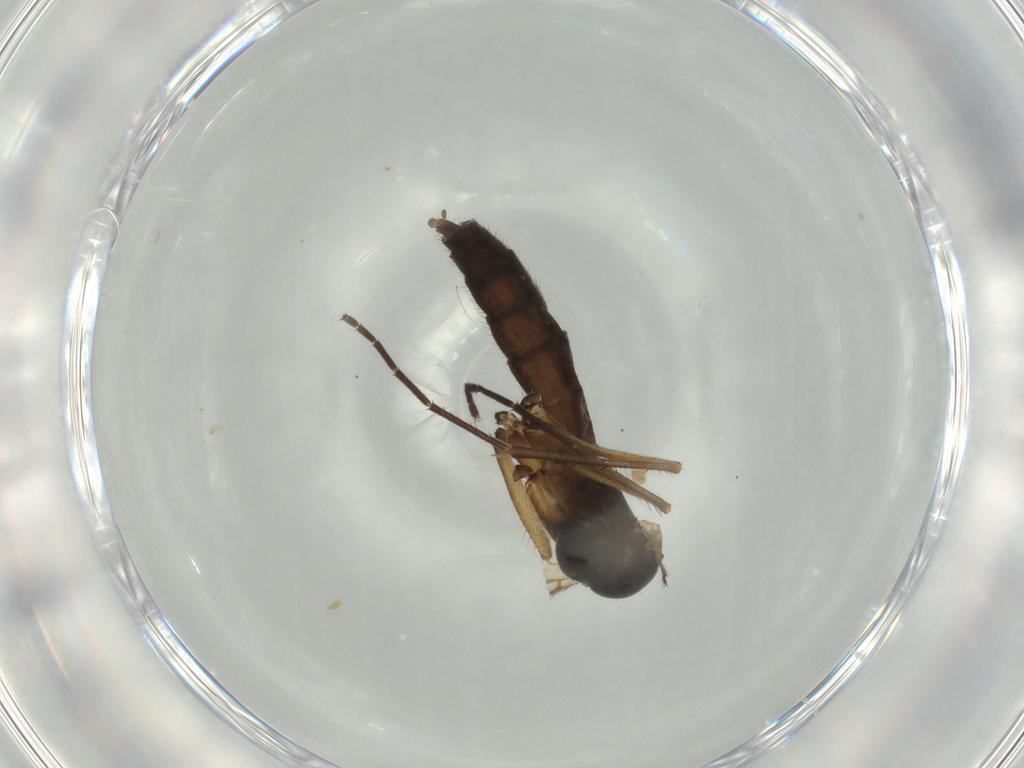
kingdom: Animalia
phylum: Arthropoda
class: Insecta
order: Diptera
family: Mycetophilidae
